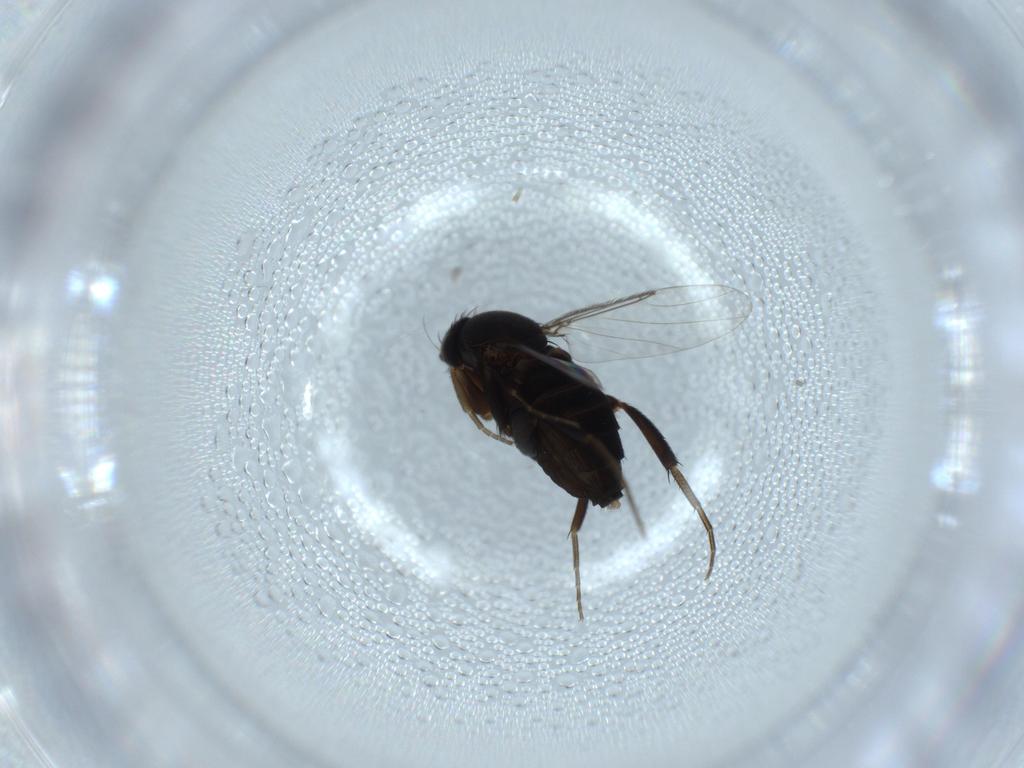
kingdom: Animalia
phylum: Arthropoda
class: Insecta
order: Diptera
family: Phoridae
